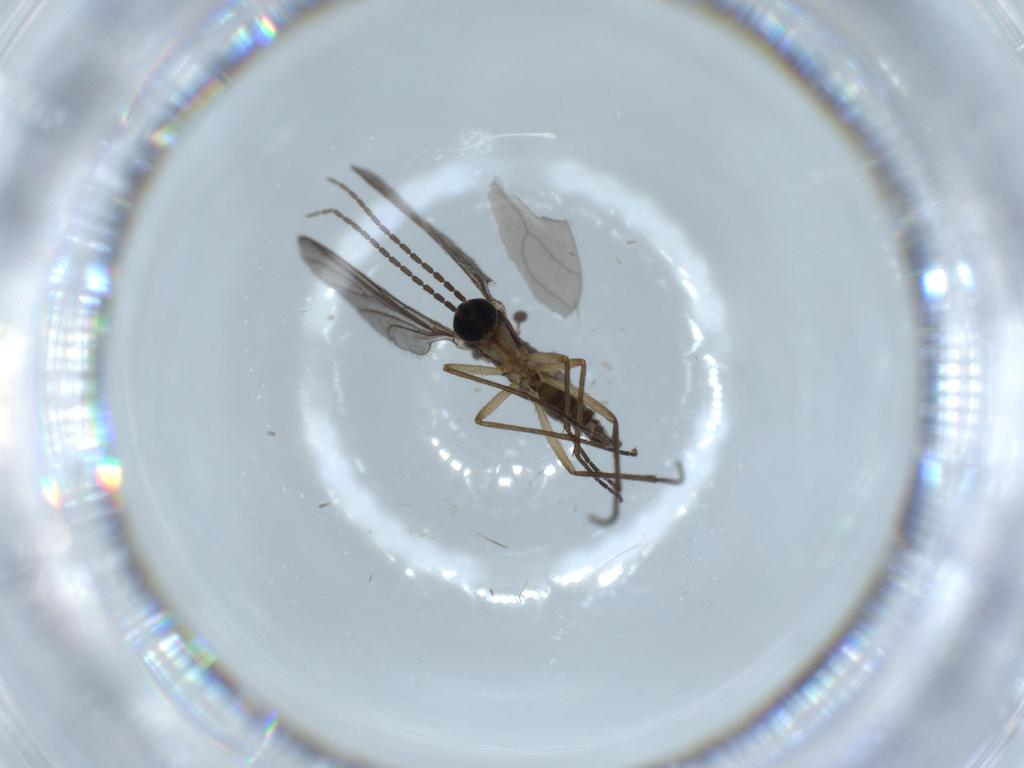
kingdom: Animalia
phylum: Arthropoda
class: Insecta
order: Diptera
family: Sciaridae
